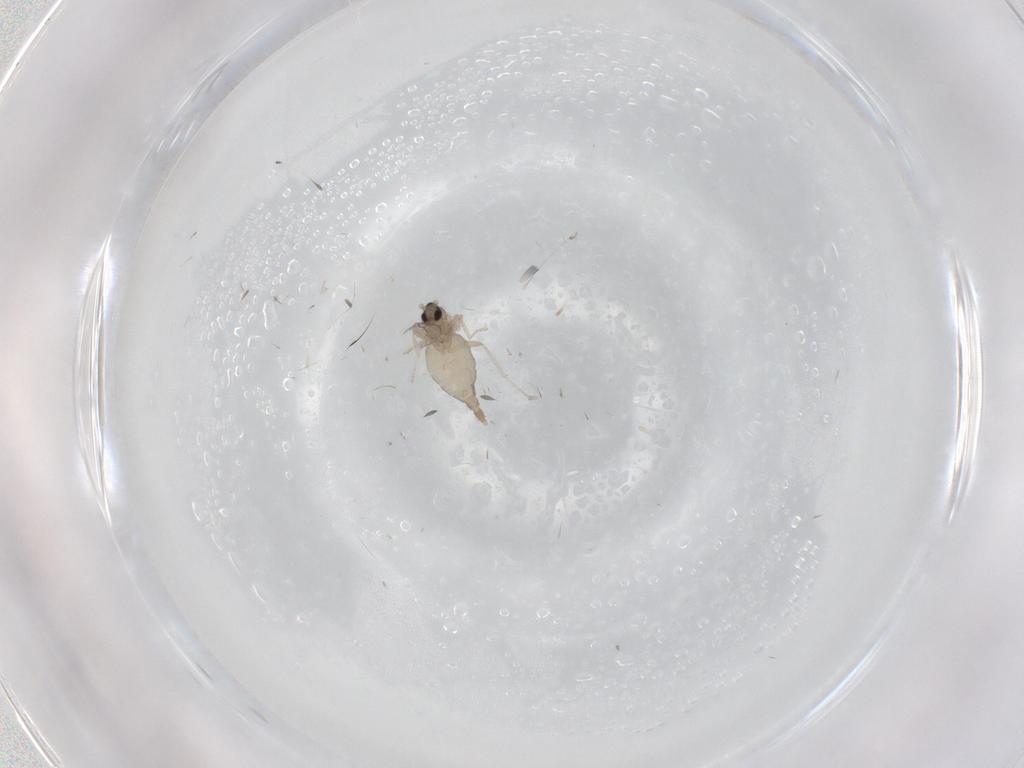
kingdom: Animalia
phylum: Arthropoda
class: Insecta
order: Diptera
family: Cecidomyiidae
